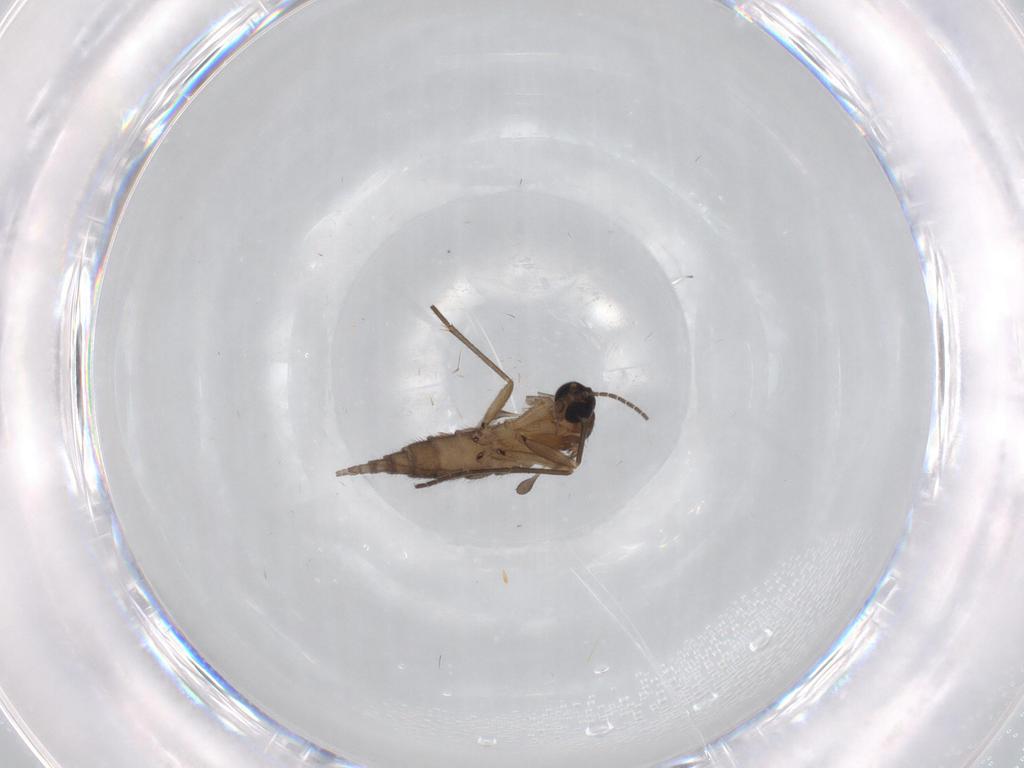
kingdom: Animalia
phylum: Arthropoda
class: Insecta
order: Diptera
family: Sciaridae
